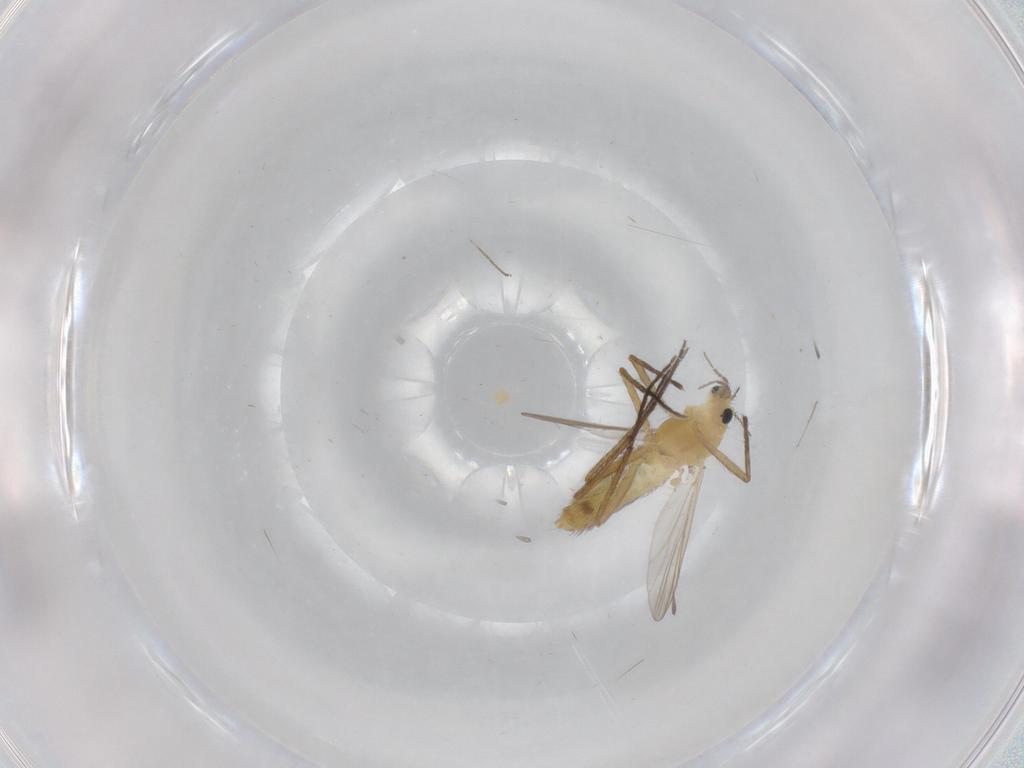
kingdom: Animalia
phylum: Arthropoda
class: Insecta
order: Diptera
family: Chironomidae
